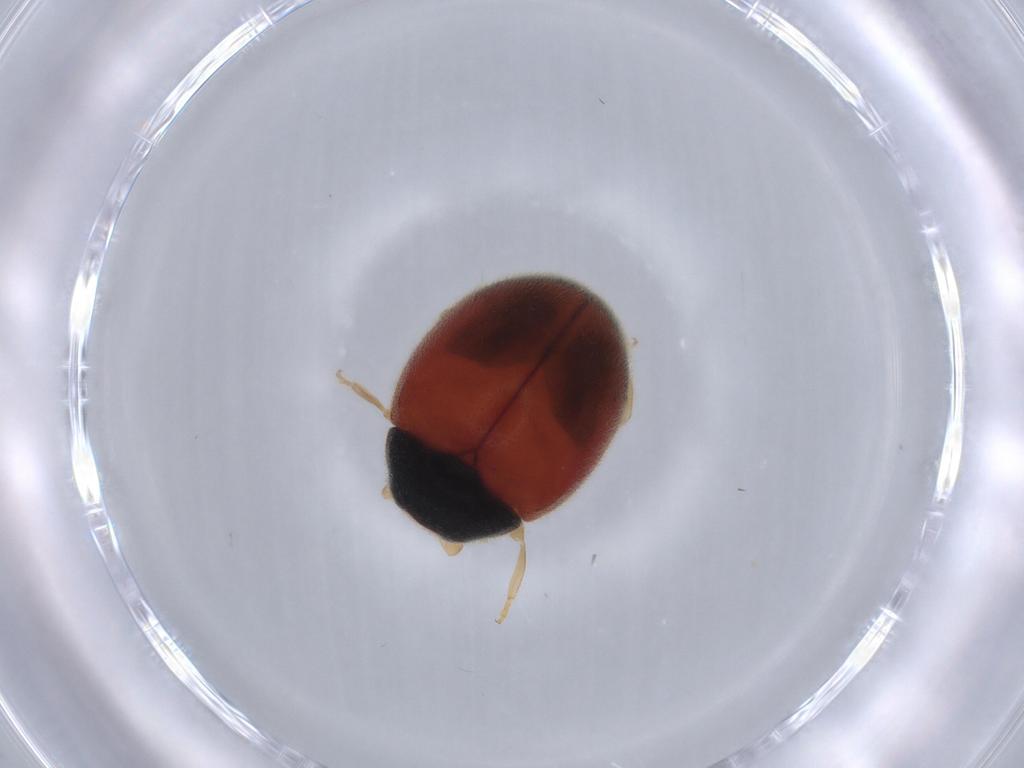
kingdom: Animalia
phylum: Arthropoda
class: Insecta
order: Coleoptera
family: Coccinellidae
